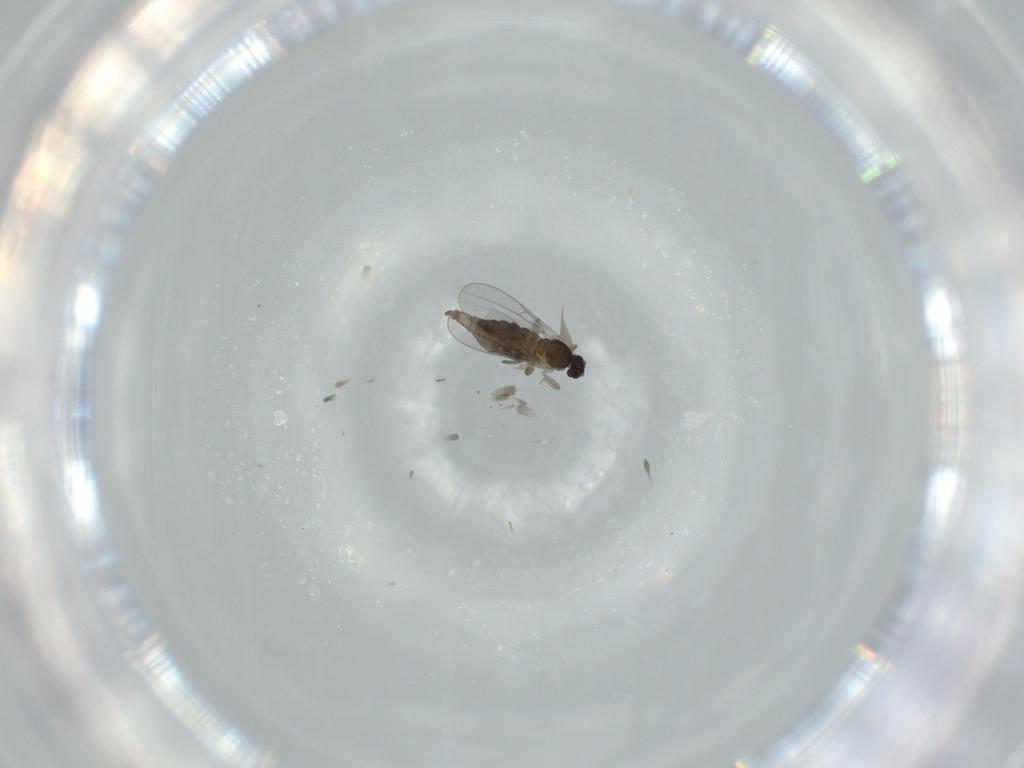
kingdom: Animalia
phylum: Arthropoda
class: Insecta
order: Diptera
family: Cecidomyiidae
